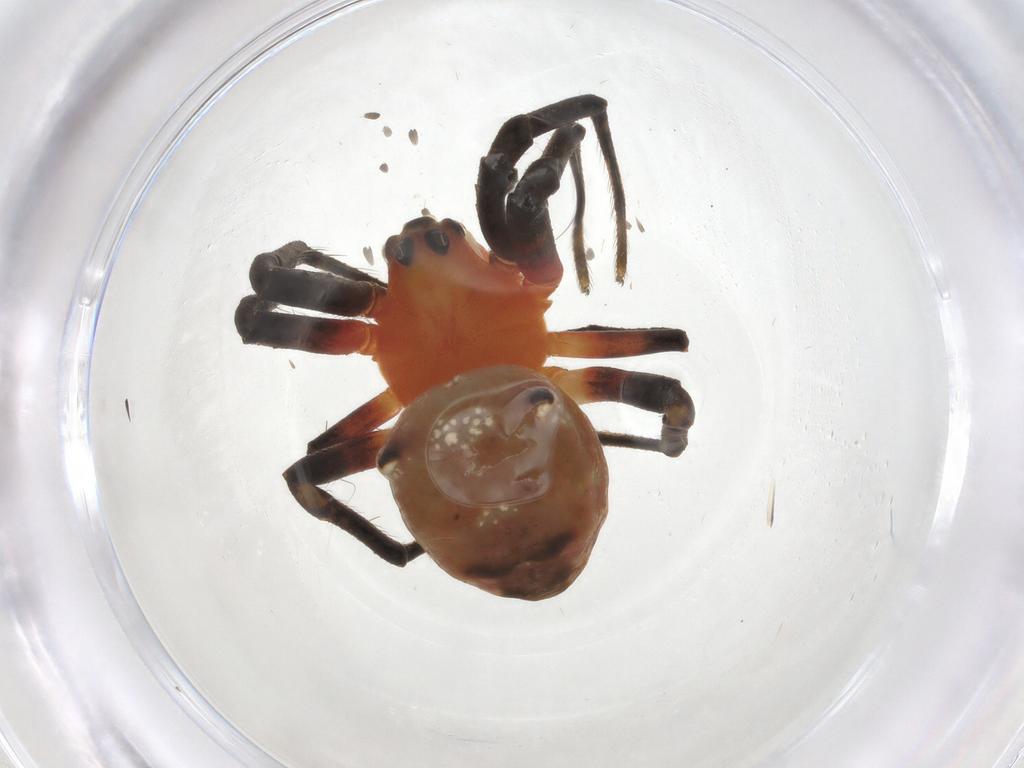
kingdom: Animalia
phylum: Arthropoda
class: Arachnida
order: Araneae
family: Araneidae
